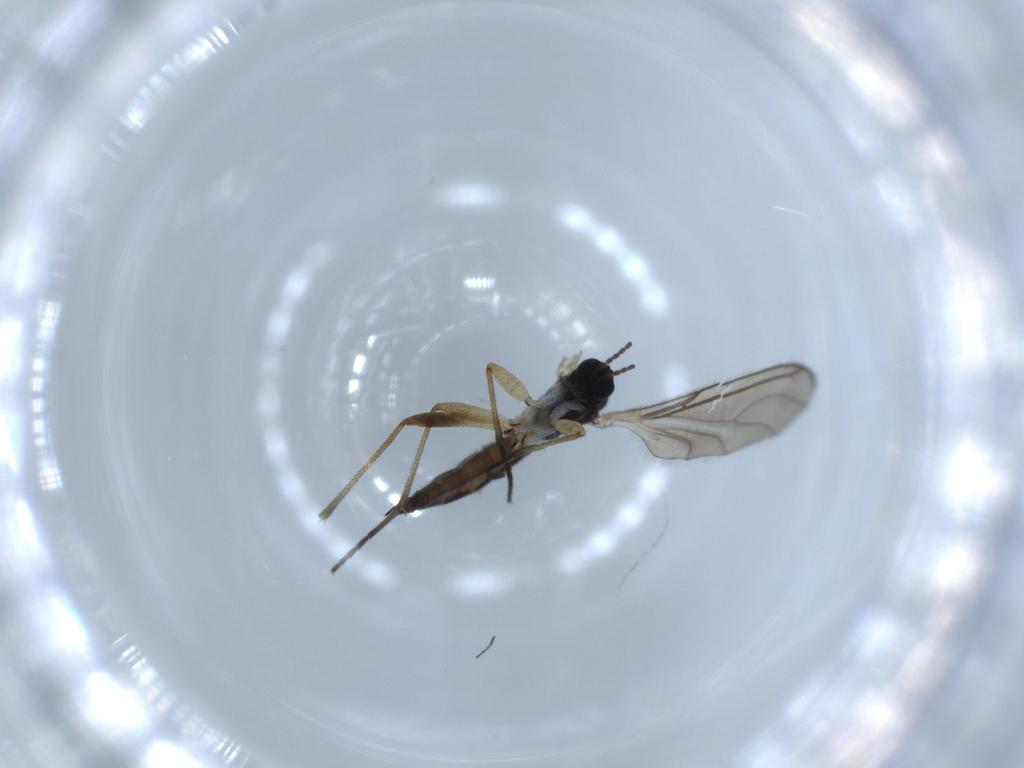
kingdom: Animalia
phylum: Arthropoda
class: Insecta
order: Diptera
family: Sciaridae
